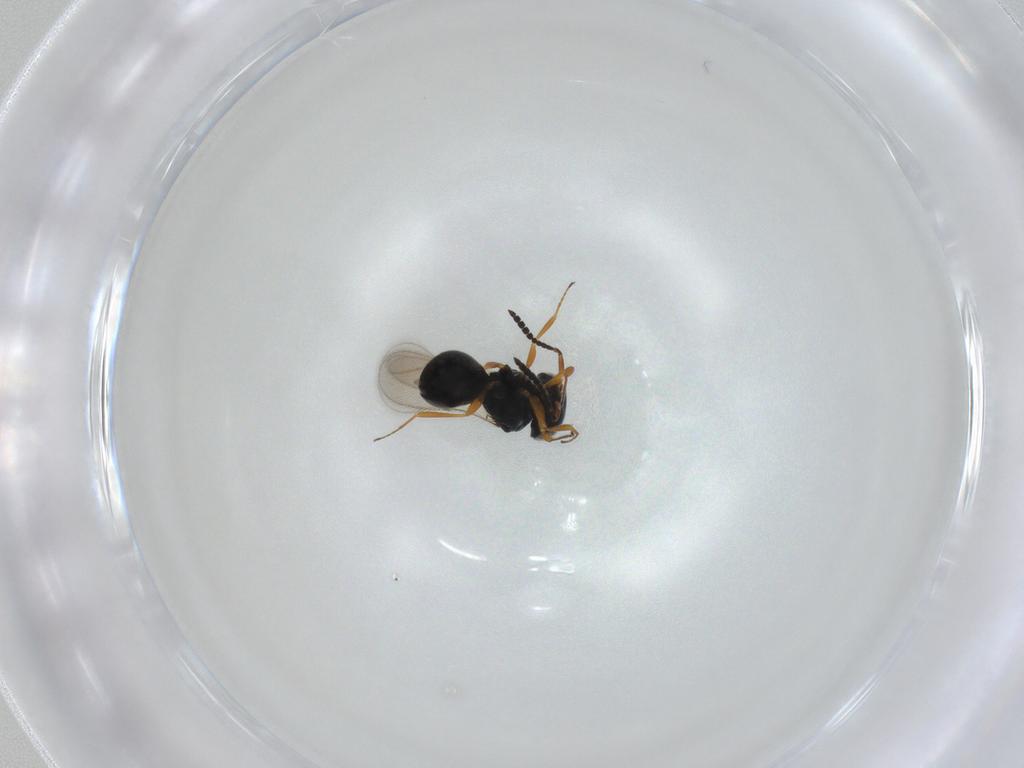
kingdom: Animalia
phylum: Arthropoda
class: Insecta
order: Hymenoptera
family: Scelionidae
